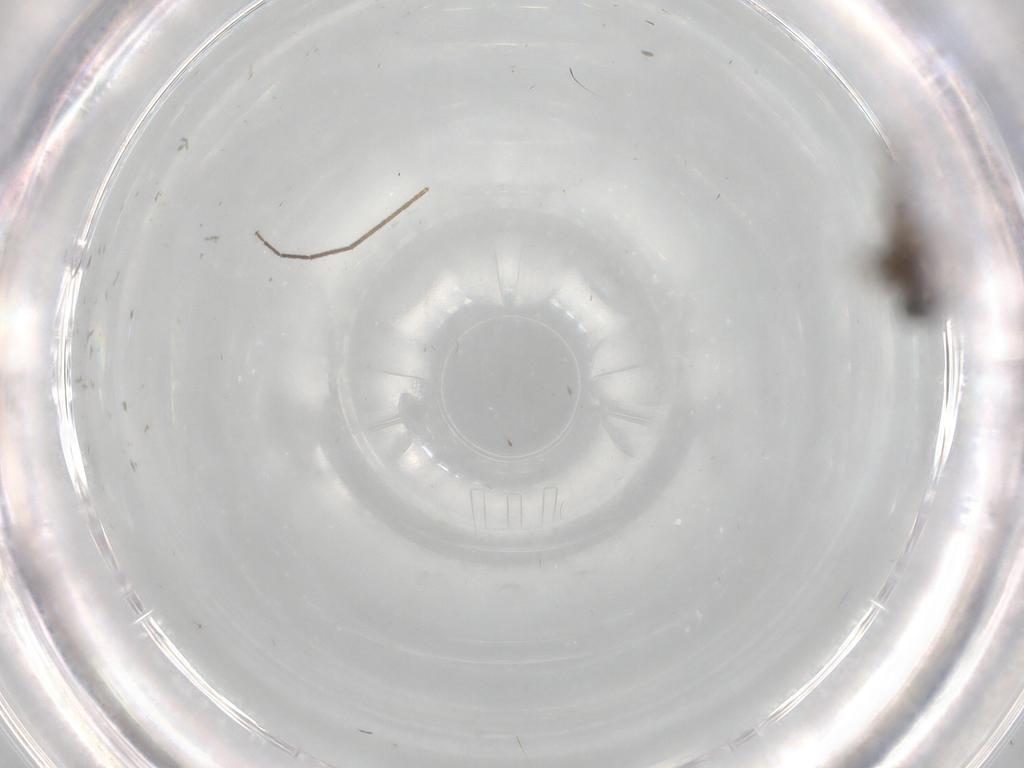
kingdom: Animalia
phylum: Arthropoda
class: Insecta
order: Diptera
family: Ceratopogonidae
